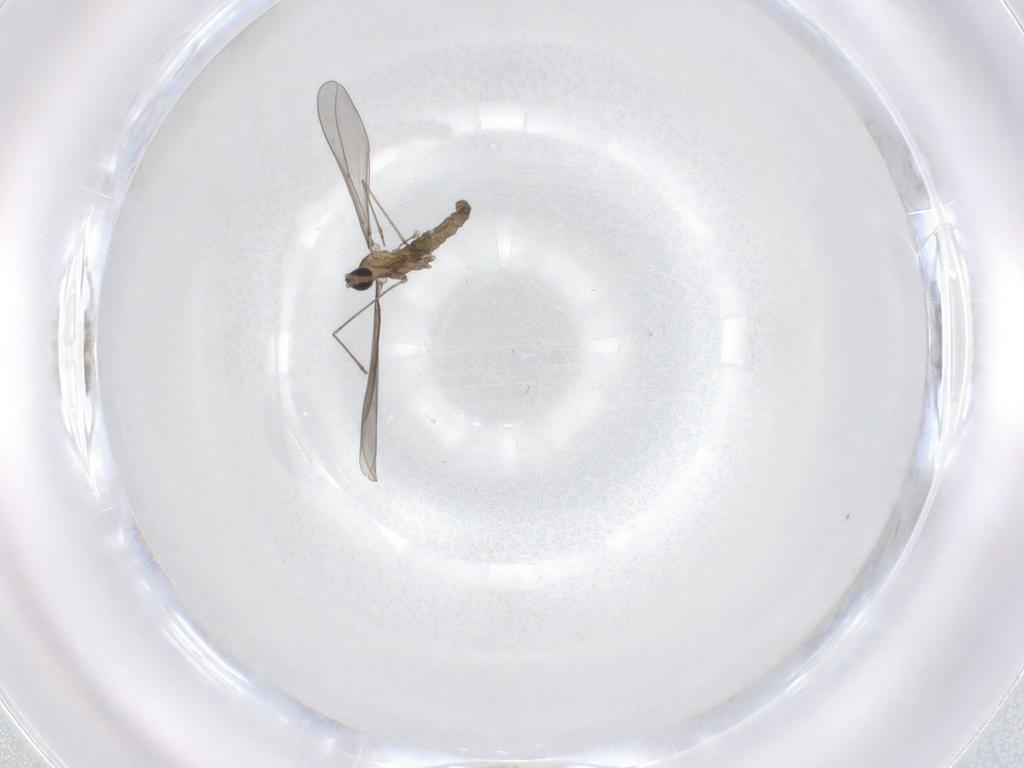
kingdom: Animalia
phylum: Arthropoda
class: Insecta
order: Diptera
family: Cecidomyiidae
